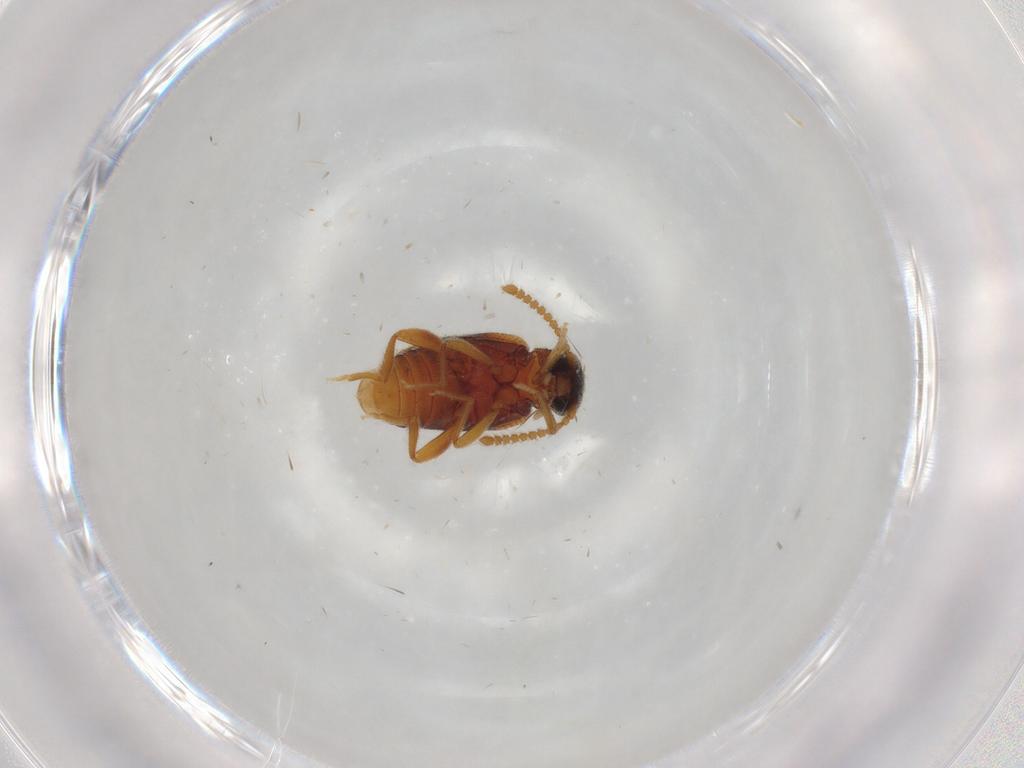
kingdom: Animalia
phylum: Arthropoda
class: Insecta
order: Coleoptera
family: Aderidae
